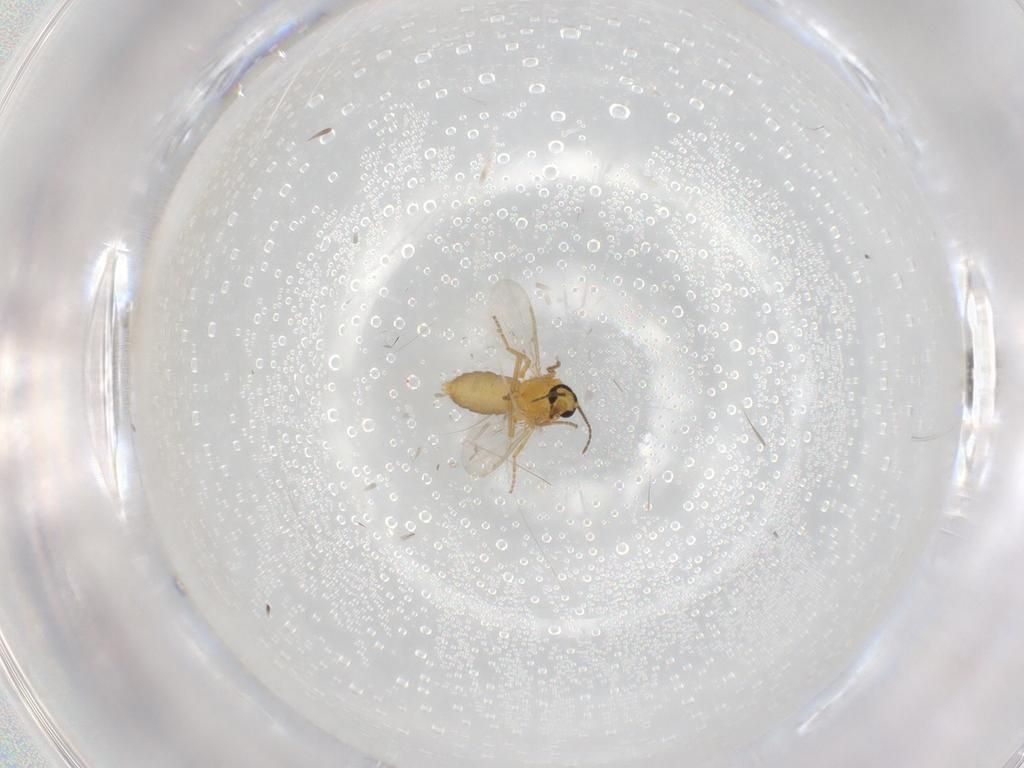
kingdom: Animalia
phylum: Arthropoda
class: Insecta
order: Diptera
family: Ceratopogonidae
